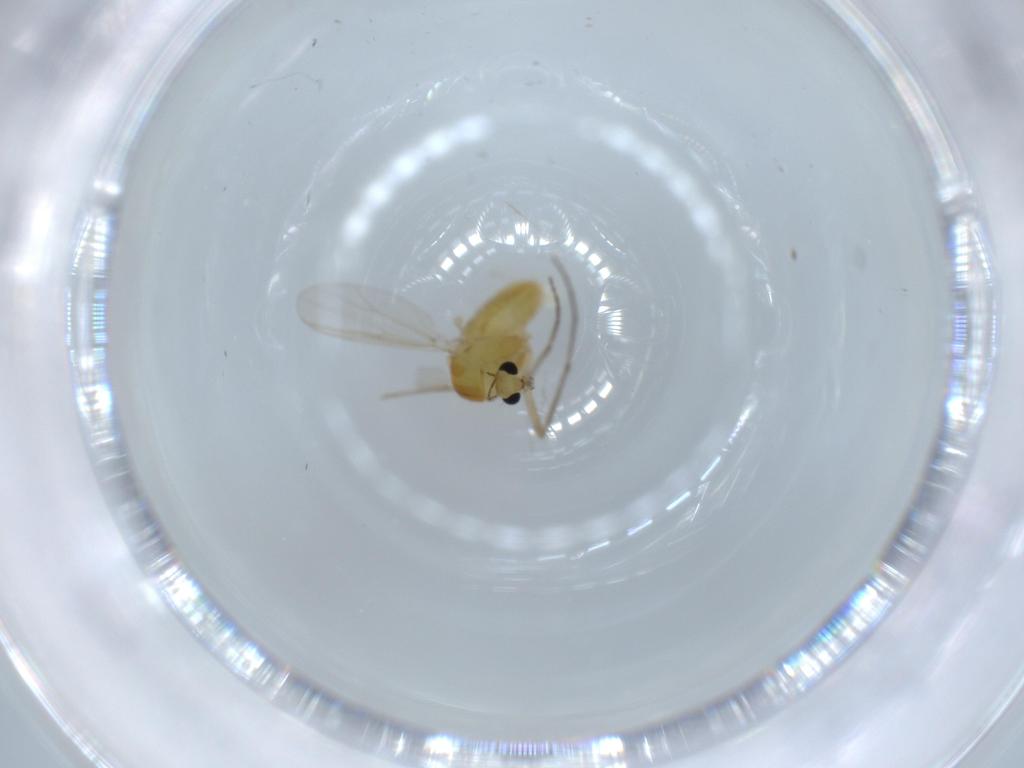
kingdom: Animalia
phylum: Arthropoda
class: Insecta
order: Diptera
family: Chironomidae
